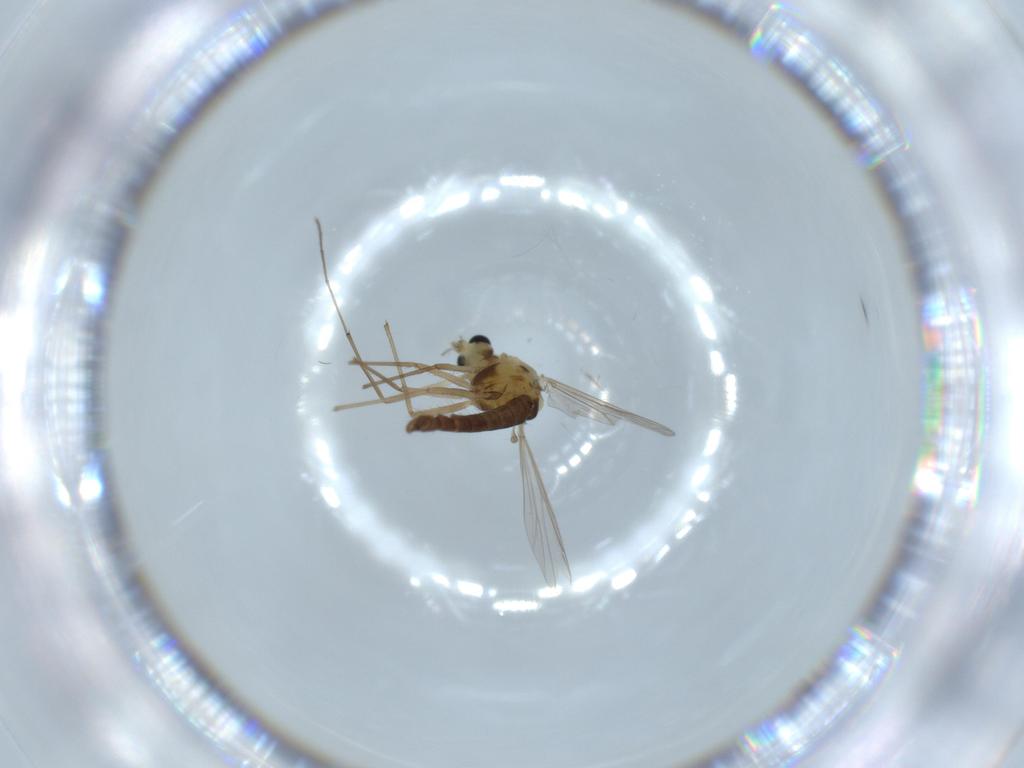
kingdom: Animalia
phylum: Arthropoda
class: Insecta
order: Diptera
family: Chironomidae
